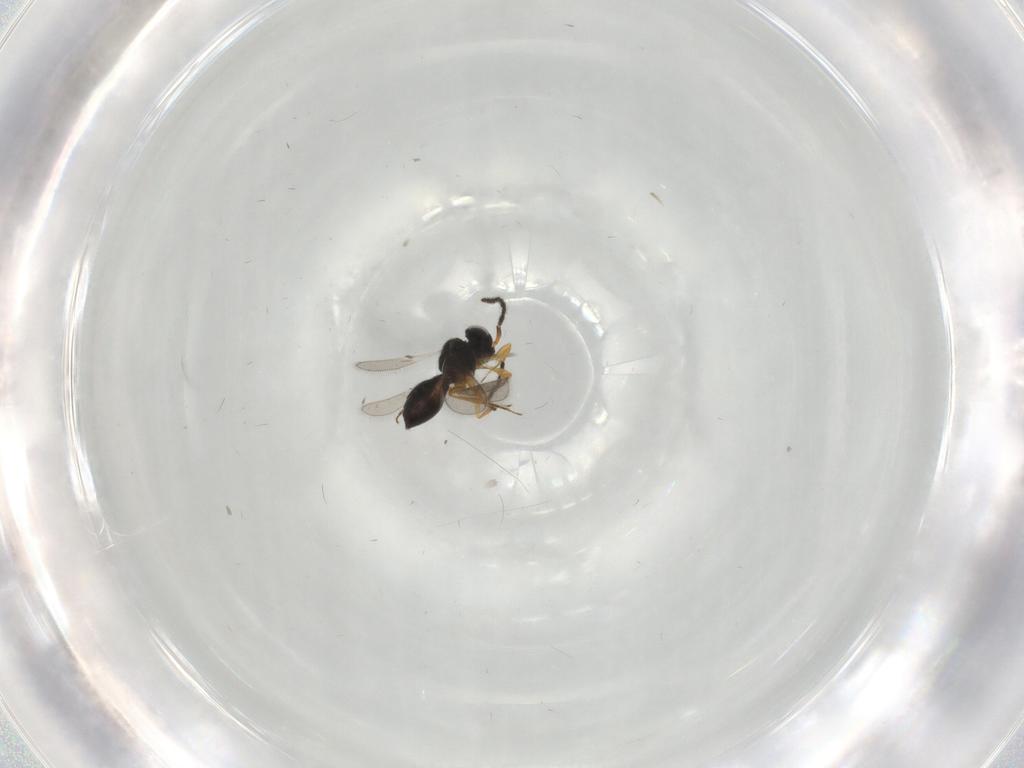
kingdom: Animalia
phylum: Arthropoda
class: Insecta
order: Hymenoptera
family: Scelionidae
